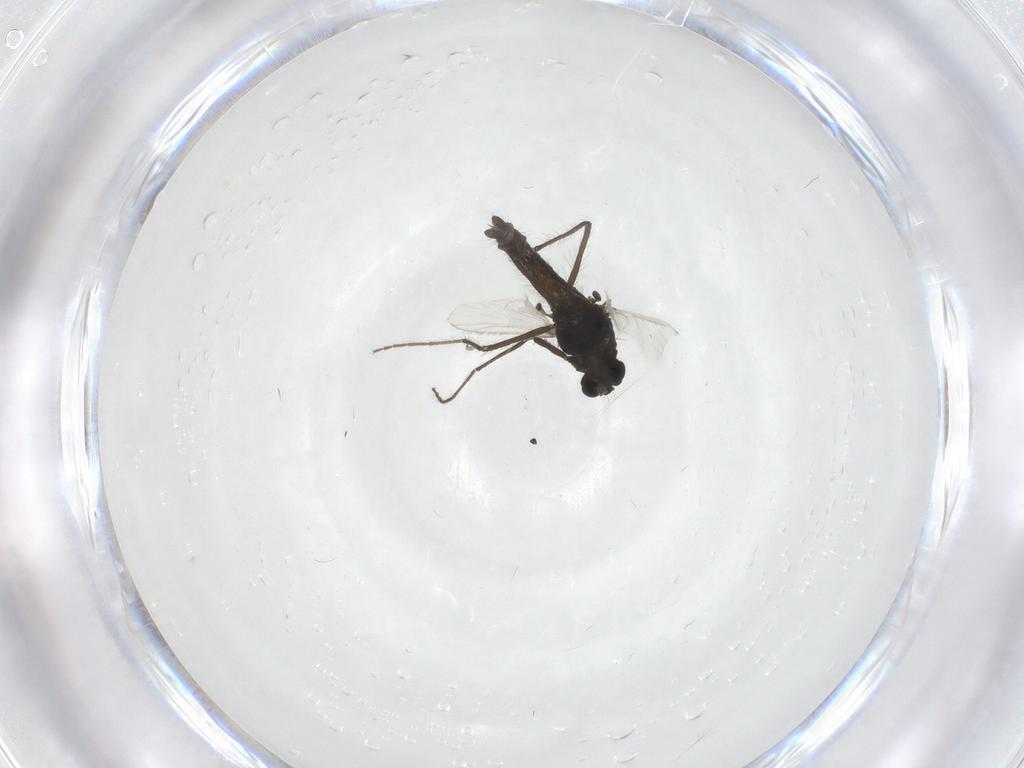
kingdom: Animalia
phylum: Arthropoda
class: Insecta
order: Diptera
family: Chironomidae
